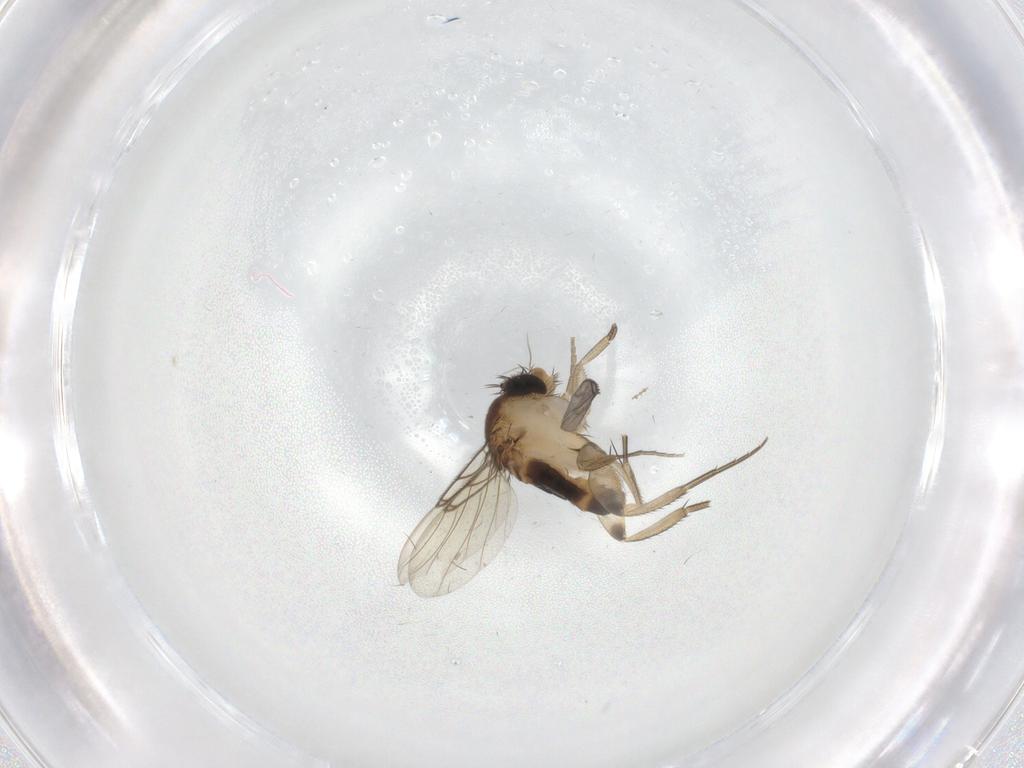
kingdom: Animalia
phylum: Arthropoda
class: Insecta
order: Diptera
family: Phoridae
